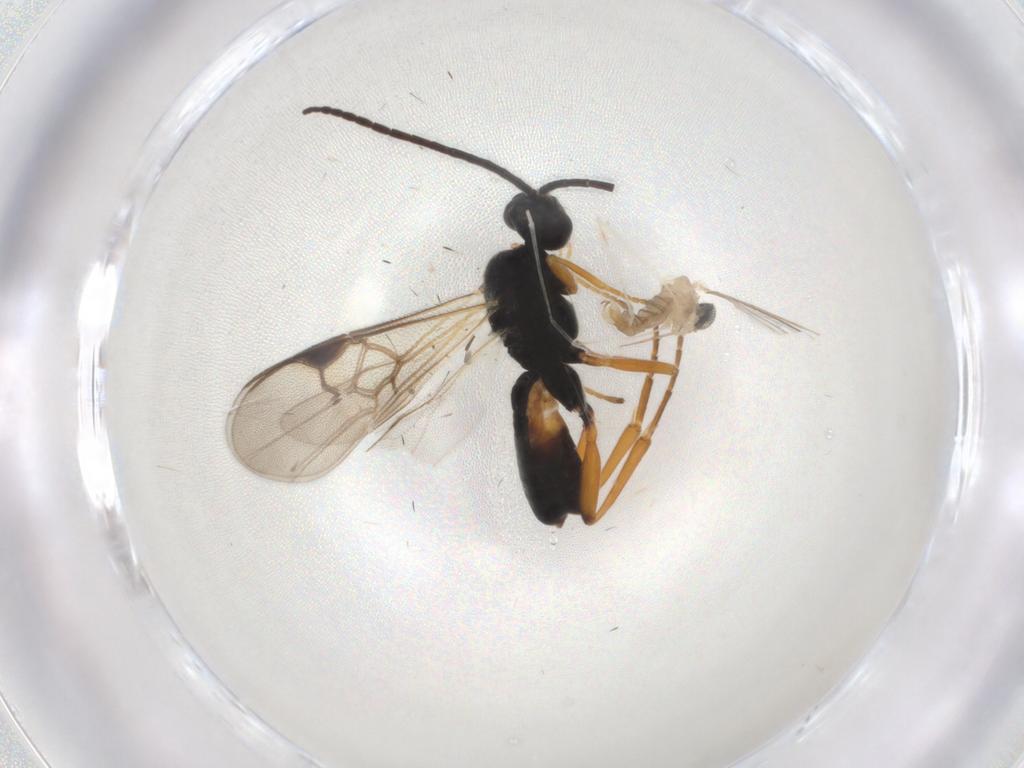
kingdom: Animalia
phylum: Arthropoda
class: Insecta
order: Diptera
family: Cecidomyiidae
